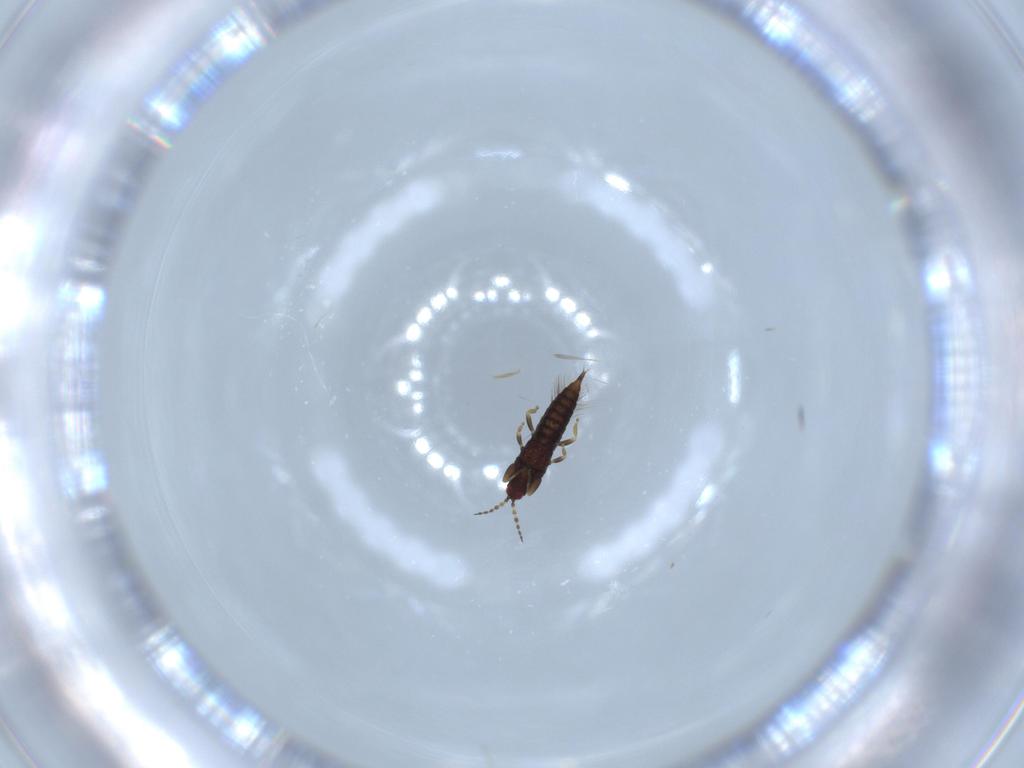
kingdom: Animalia
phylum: Arthropoda
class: Insecta
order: Thysanoptera
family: Phlaeothripidae
